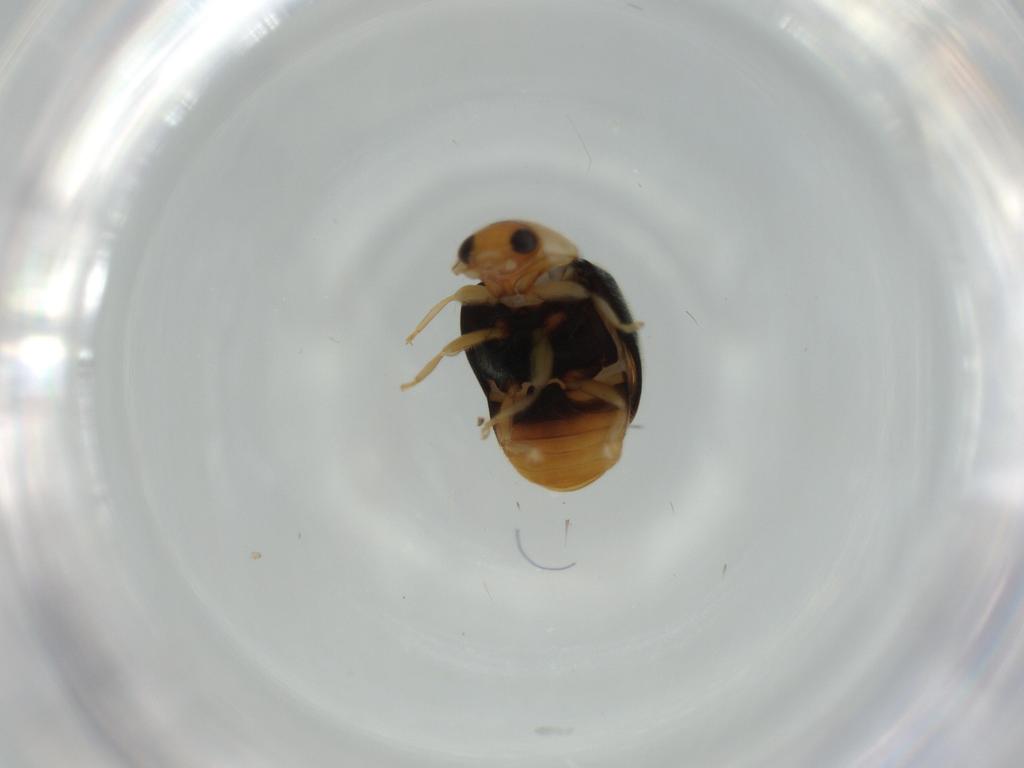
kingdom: Animalia
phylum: Arthropoda
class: Insecta
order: Coleoptera
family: Coccinellidae
